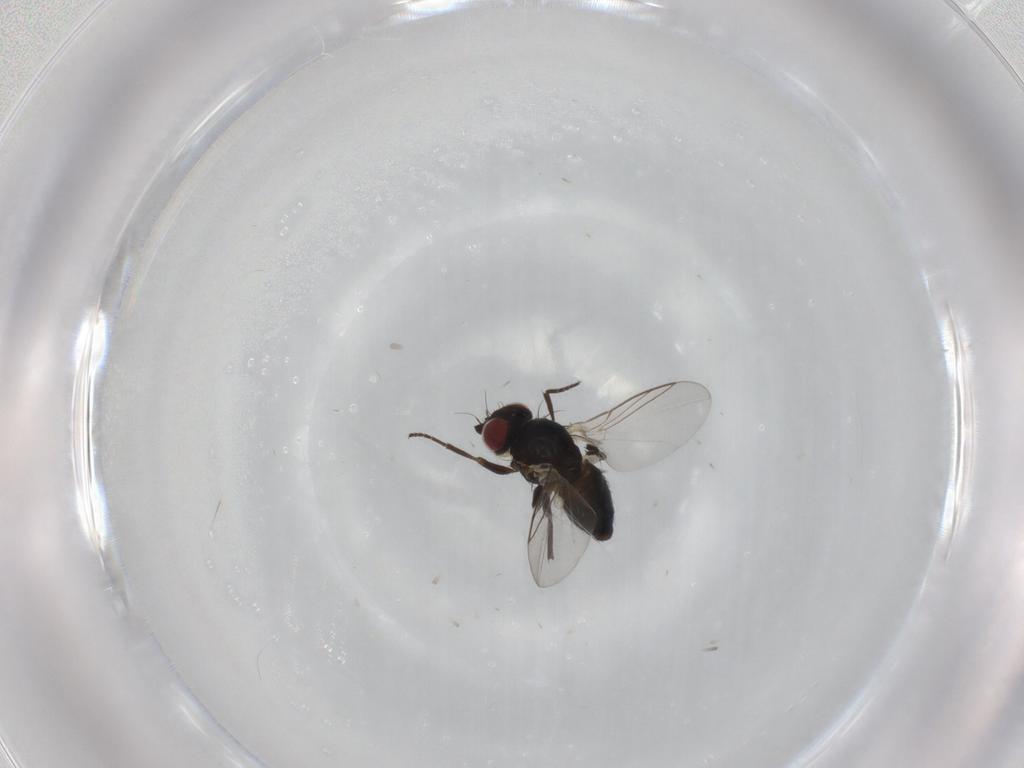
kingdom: Animalia
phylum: Arthropoda
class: Insecta
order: Diptera
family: Agromyzidae
